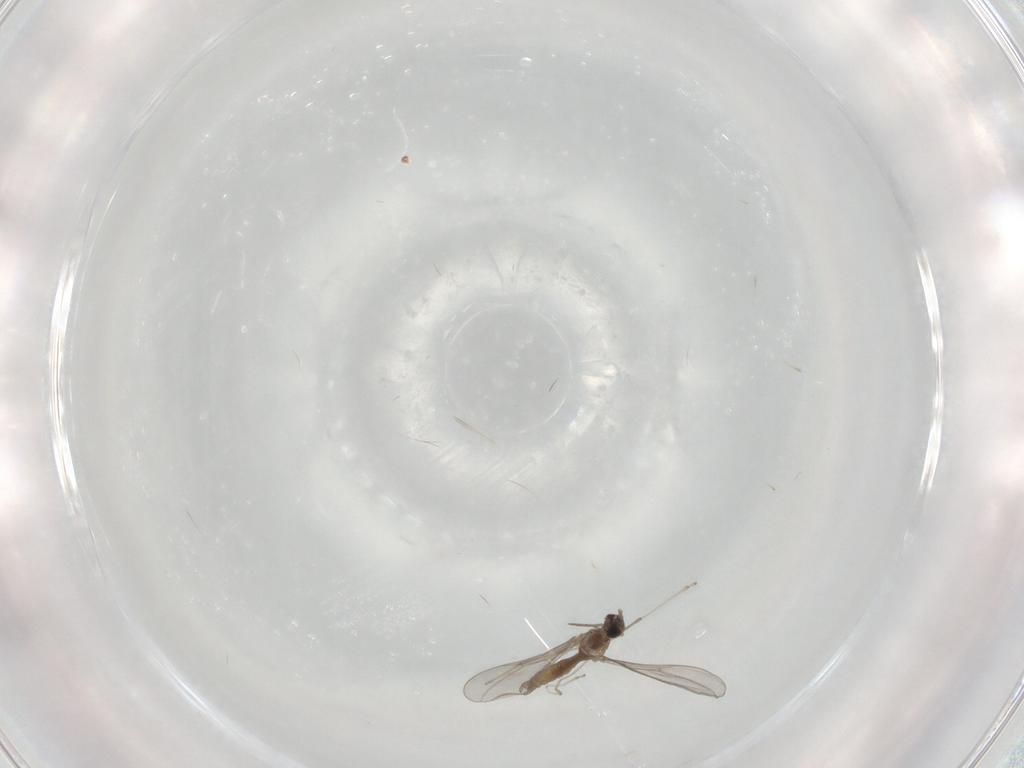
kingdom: Animalia
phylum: Arthropoda
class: Insecta
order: Diptera
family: Cecidomyiidae
